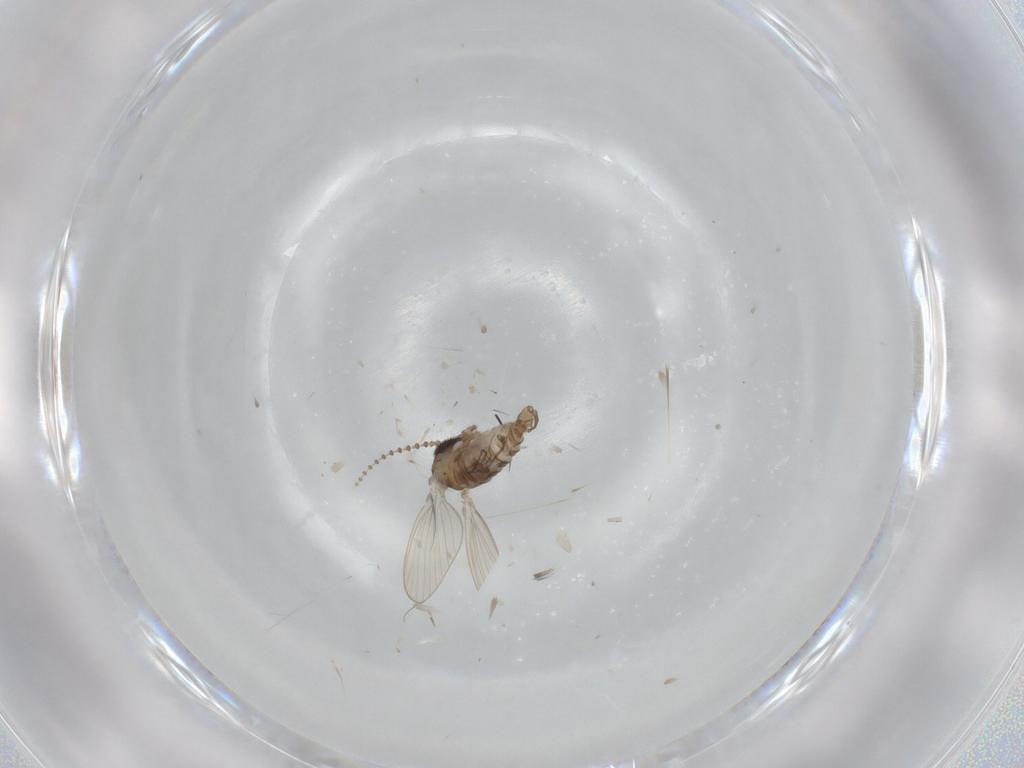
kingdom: Animalia
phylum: Arthropoda
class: Insecta
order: Diptera
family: Psychodidae
